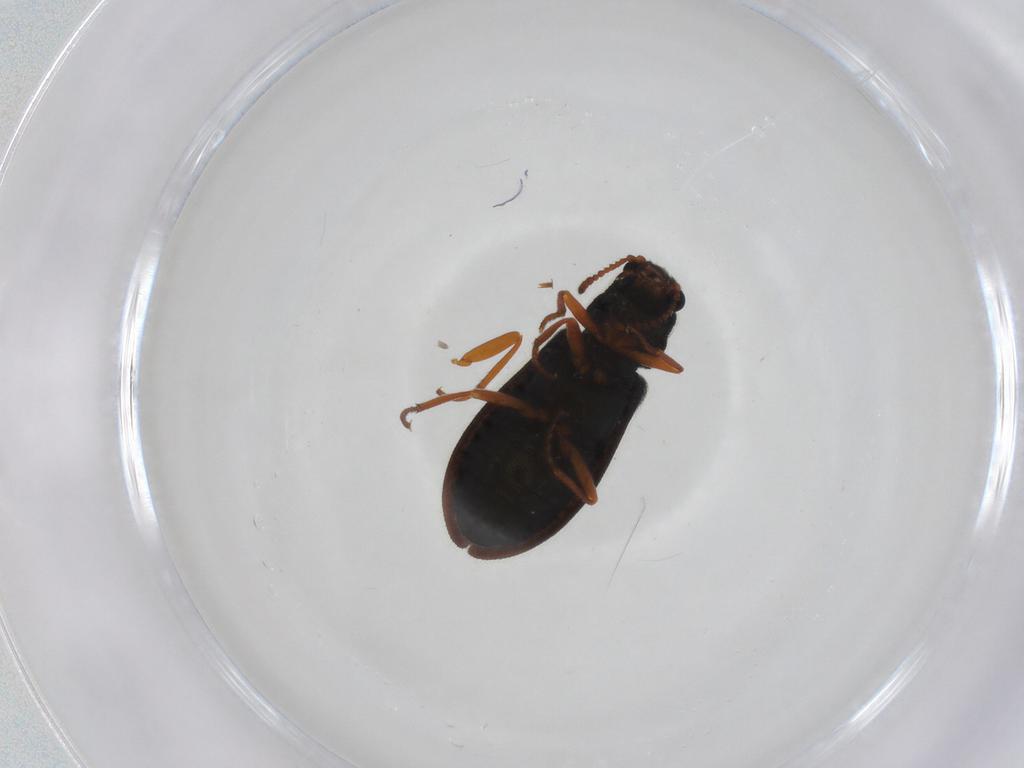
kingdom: Animalia
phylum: Arthropoda
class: Insecta
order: Coleoptera
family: Melyridae
